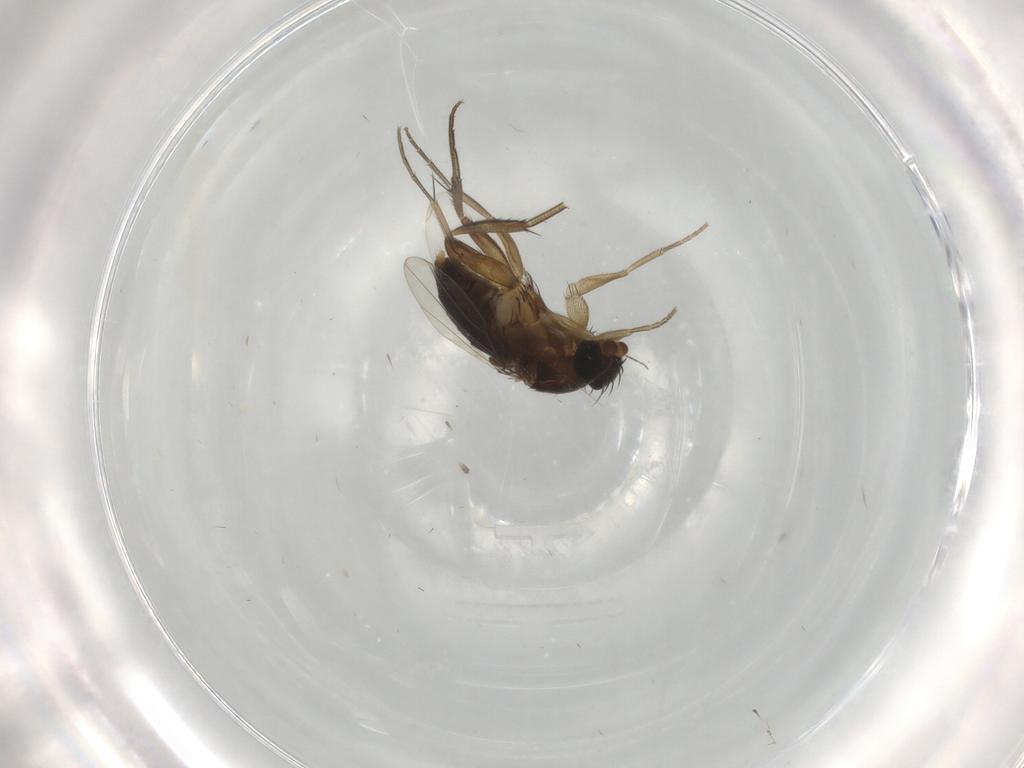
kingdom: Animalia
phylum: Arthropoda
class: Insecta
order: Diptera
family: Phoridae
